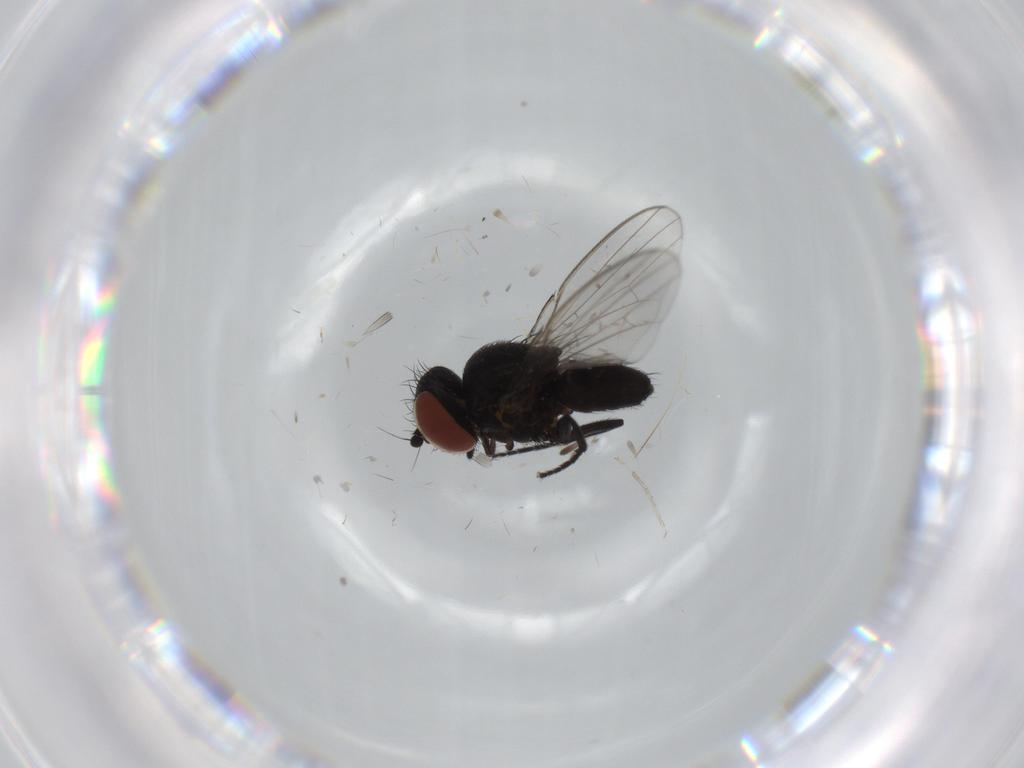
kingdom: Animalia
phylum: Arthropoda
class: Insecta
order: Diptera
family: Milichiidae
